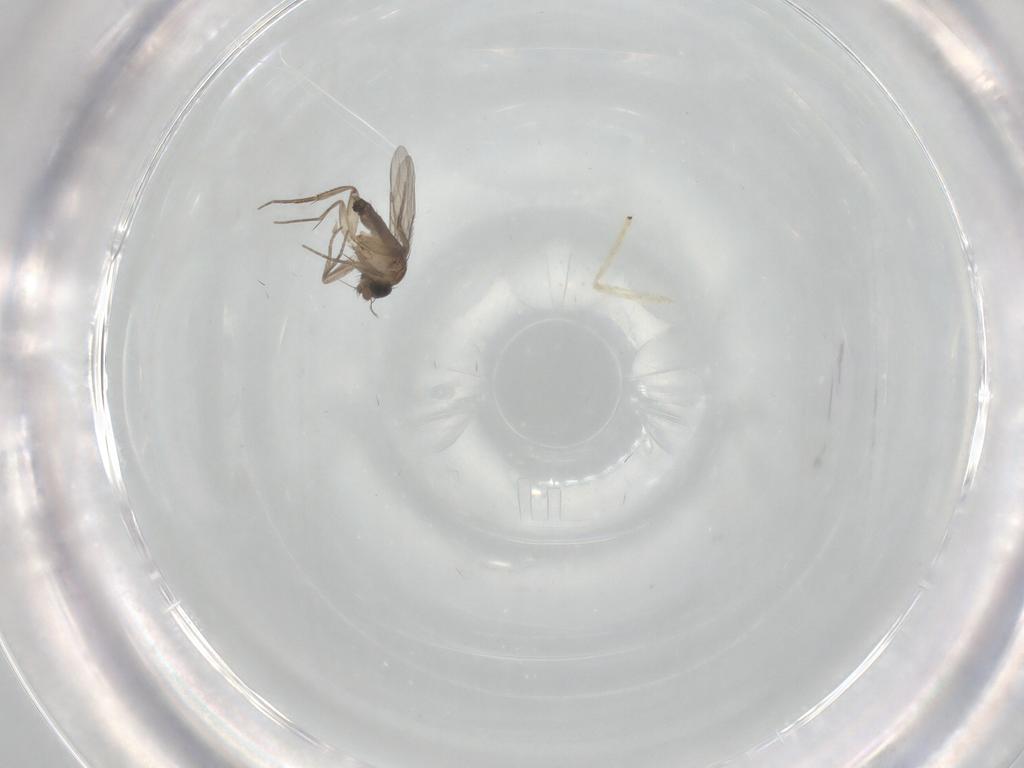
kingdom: Animalia
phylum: Arthropoda
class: Insecta
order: Diptera
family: Phoridae
